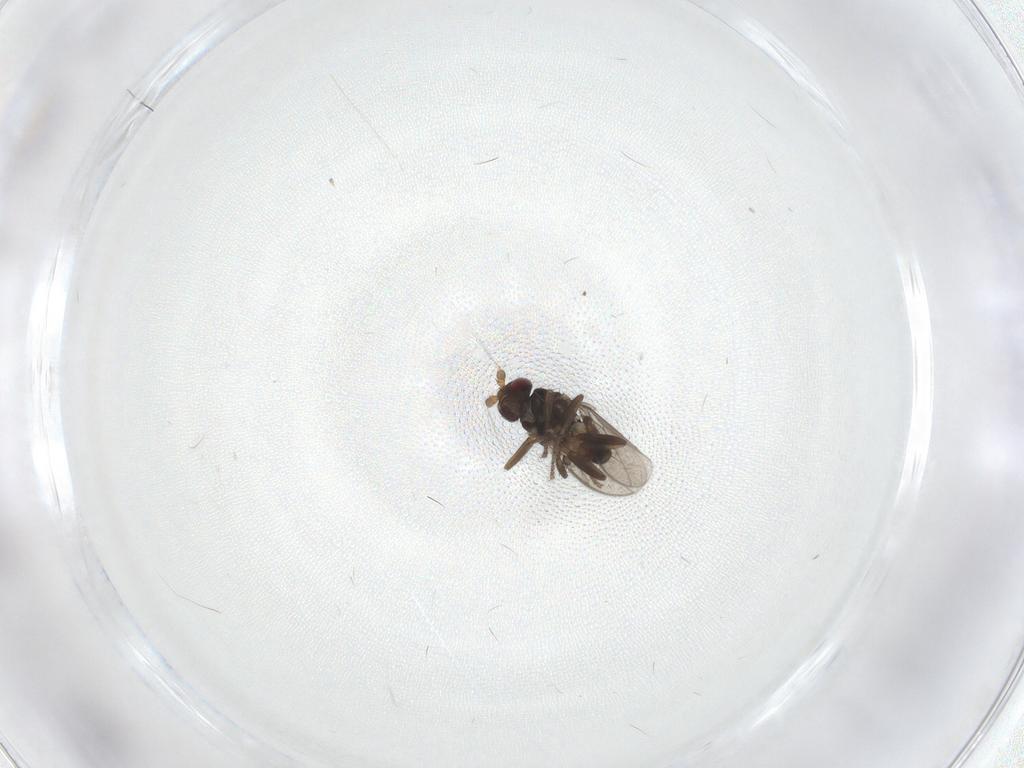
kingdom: Animalia
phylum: Arthropoda
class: Insecta
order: Diptera
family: Sphaeroceridae
